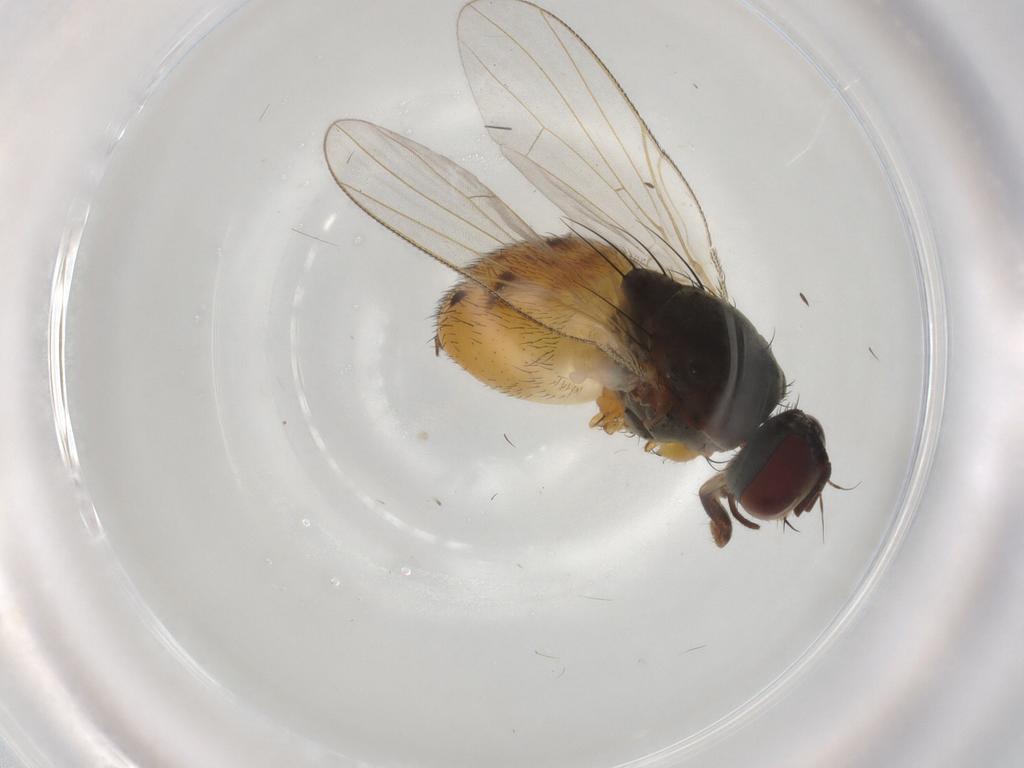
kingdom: Animalia
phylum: Arthropoda
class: Insecta
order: Diptera
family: Muscidae
